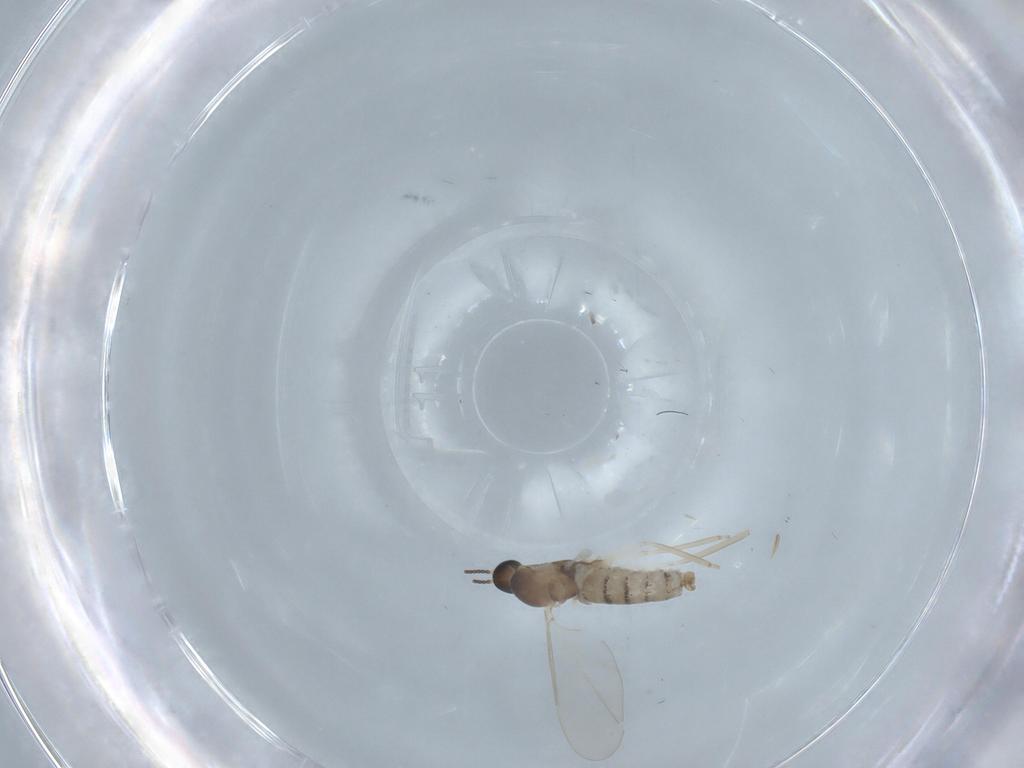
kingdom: Animalia
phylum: Arthropoda
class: Insecta
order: Diptera
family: Cecidomyiidae
